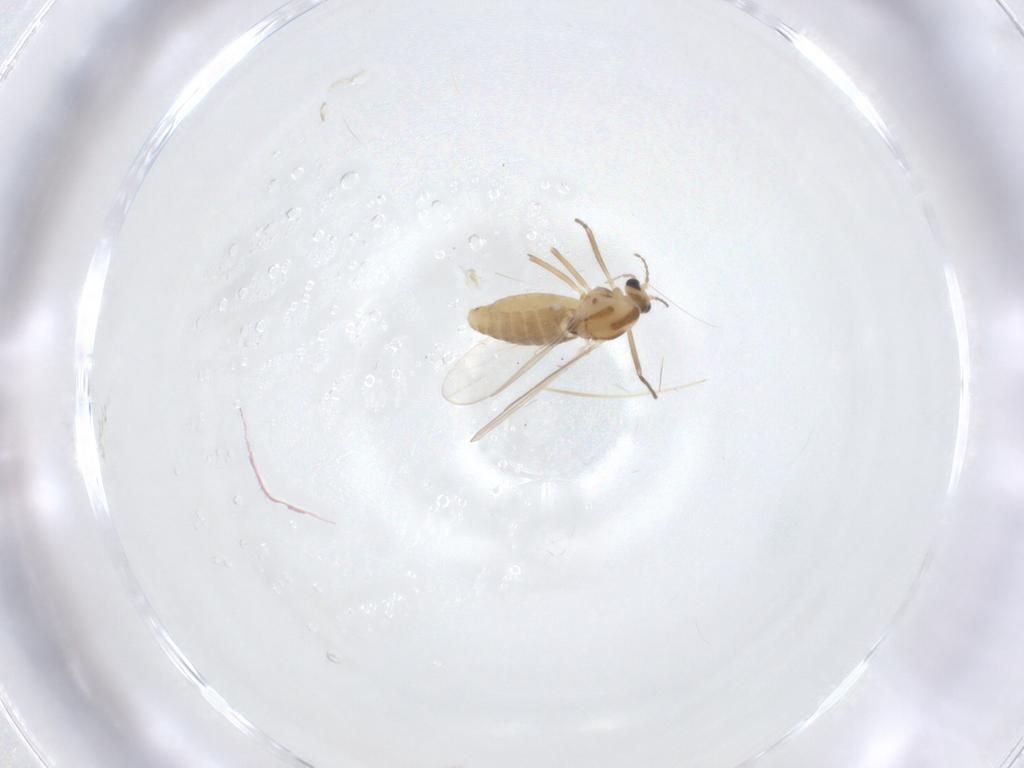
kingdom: Animalia
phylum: Arthropoda
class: Insecta
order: Diptera
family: Chironomidae
